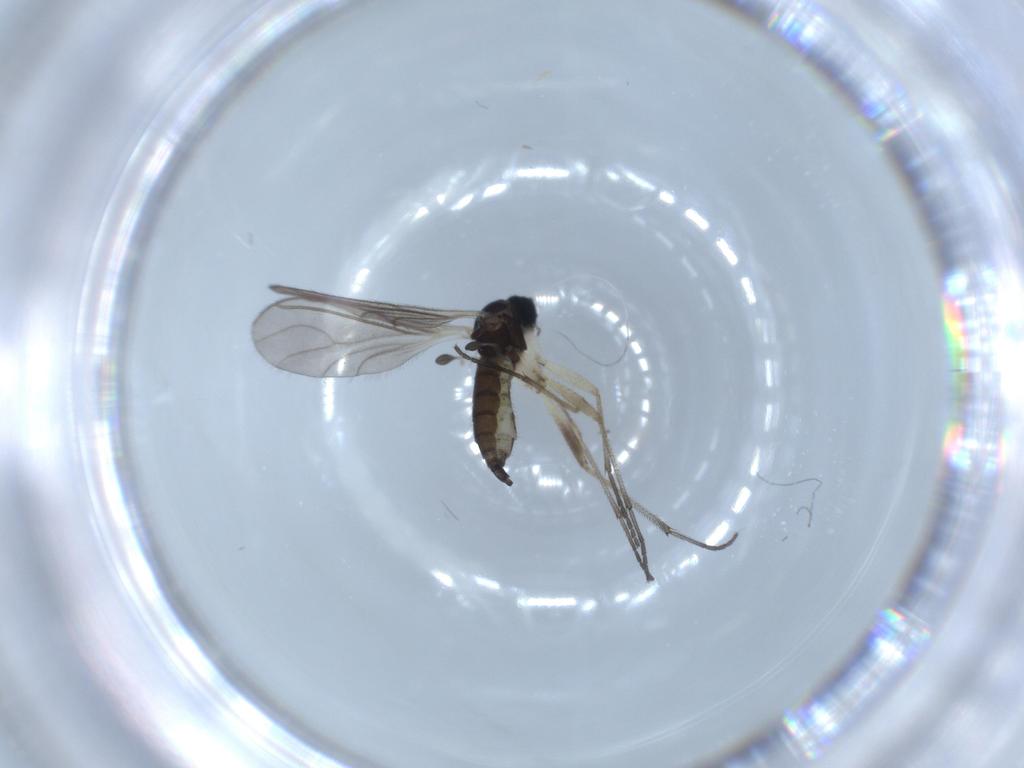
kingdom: Animalia
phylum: Arthropoda
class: Insecta
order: Diptera
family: Sciaridae
